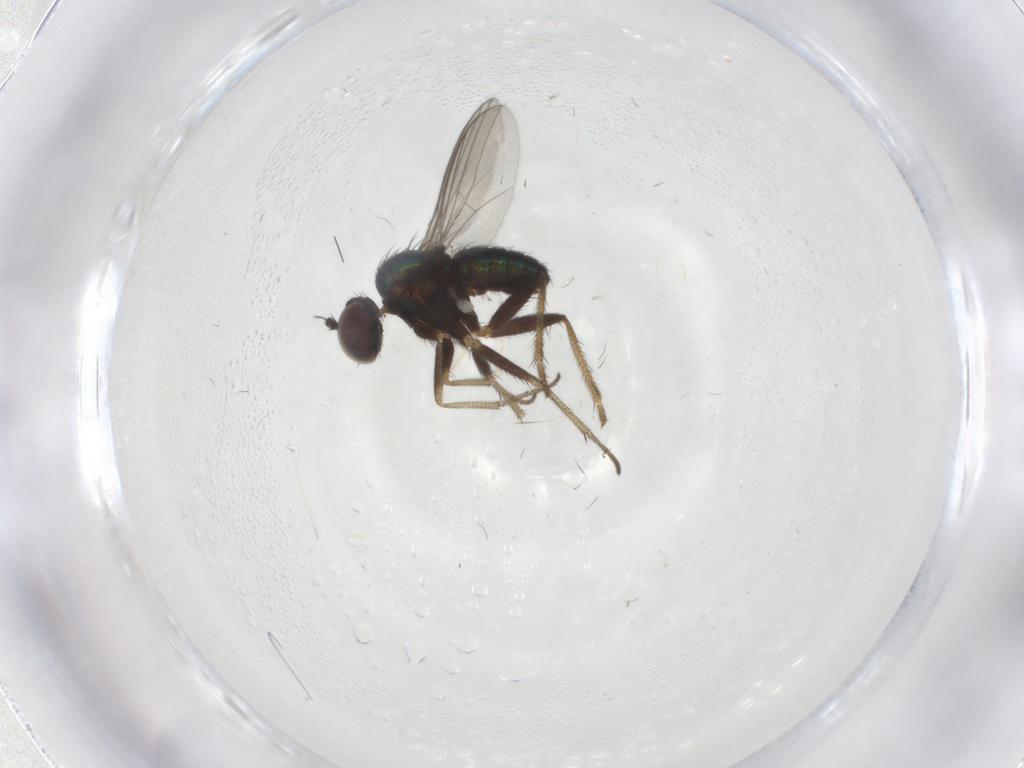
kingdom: Animalia
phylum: Arthropoda
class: Insecta
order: Diptera
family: Dolichopodidae
